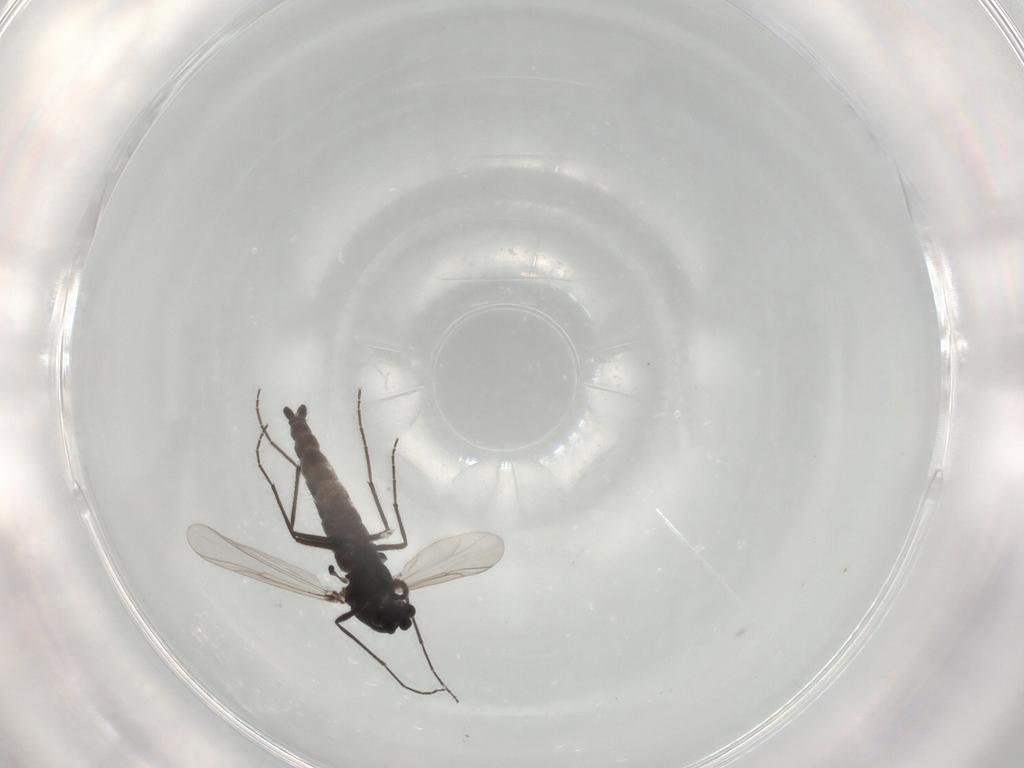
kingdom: Animalia
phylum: Arthropoda
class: Insecta
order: Diptera
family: Chironomidae
